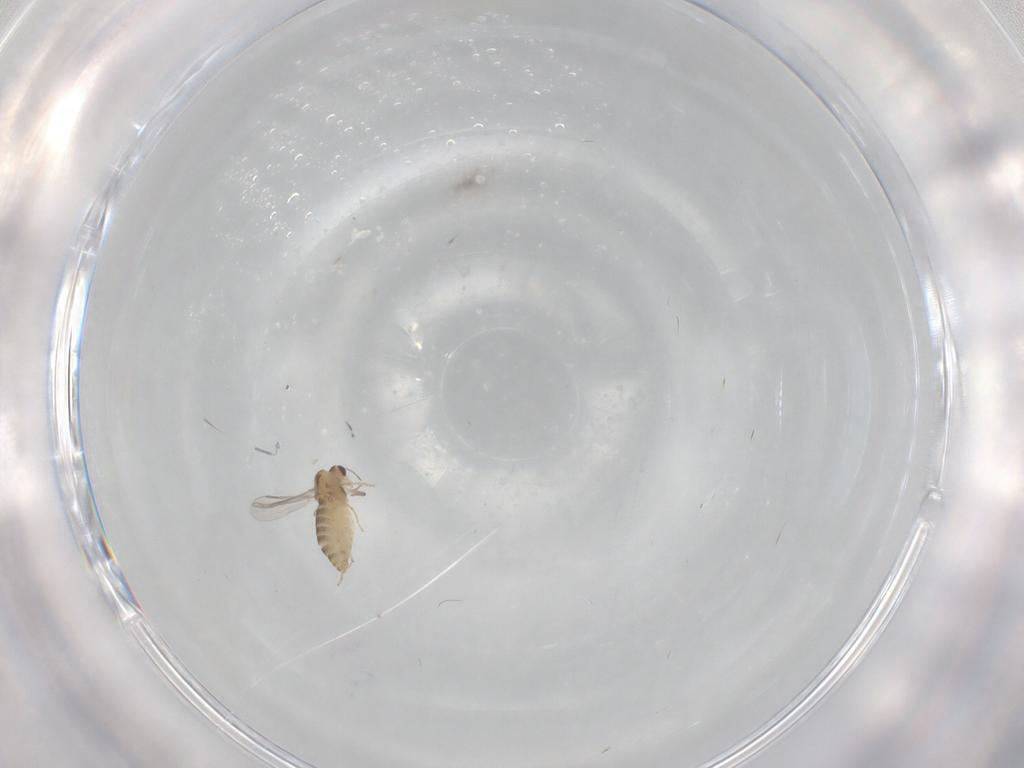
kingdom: Animalia
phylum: Arthropoda
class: Insecta
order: Diptera
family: Chironomidae
